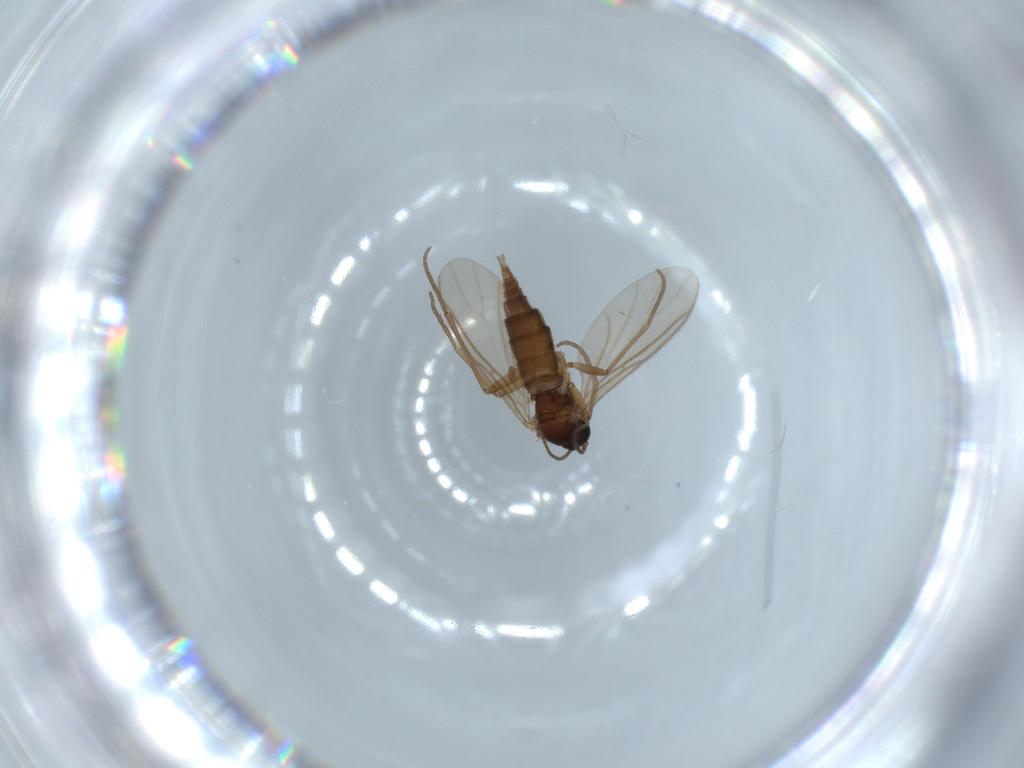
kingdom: Animalia
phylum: Arthropoda
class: Insecta
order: Diptera
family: Sciaridae
